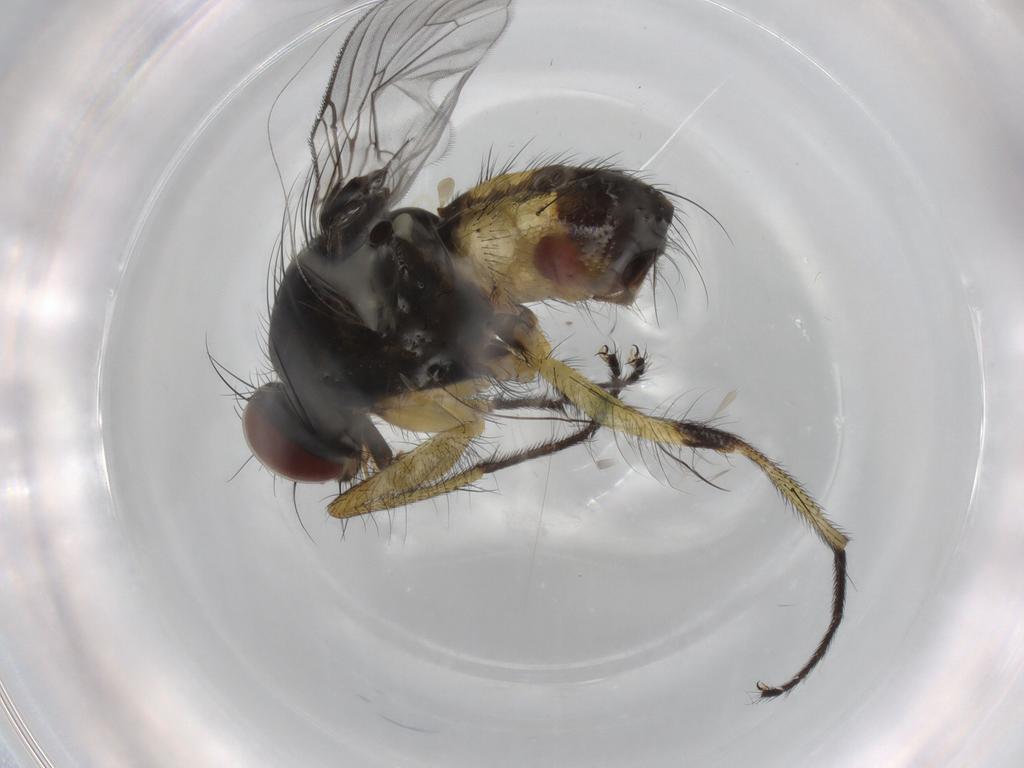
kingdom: Animalia
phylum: Arthropoda
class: Insecta
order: Diptera
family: Muscidae
